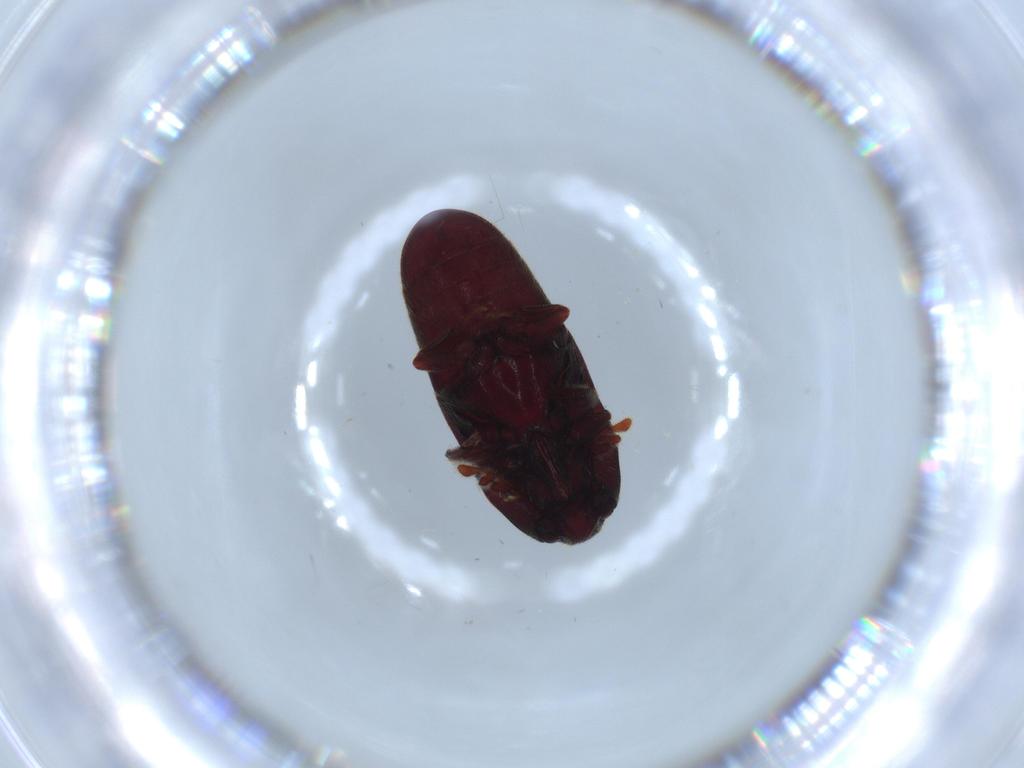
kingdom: Animalia
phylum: Arthropoda
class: Insecta
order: Coleoptera
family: Throscidae
